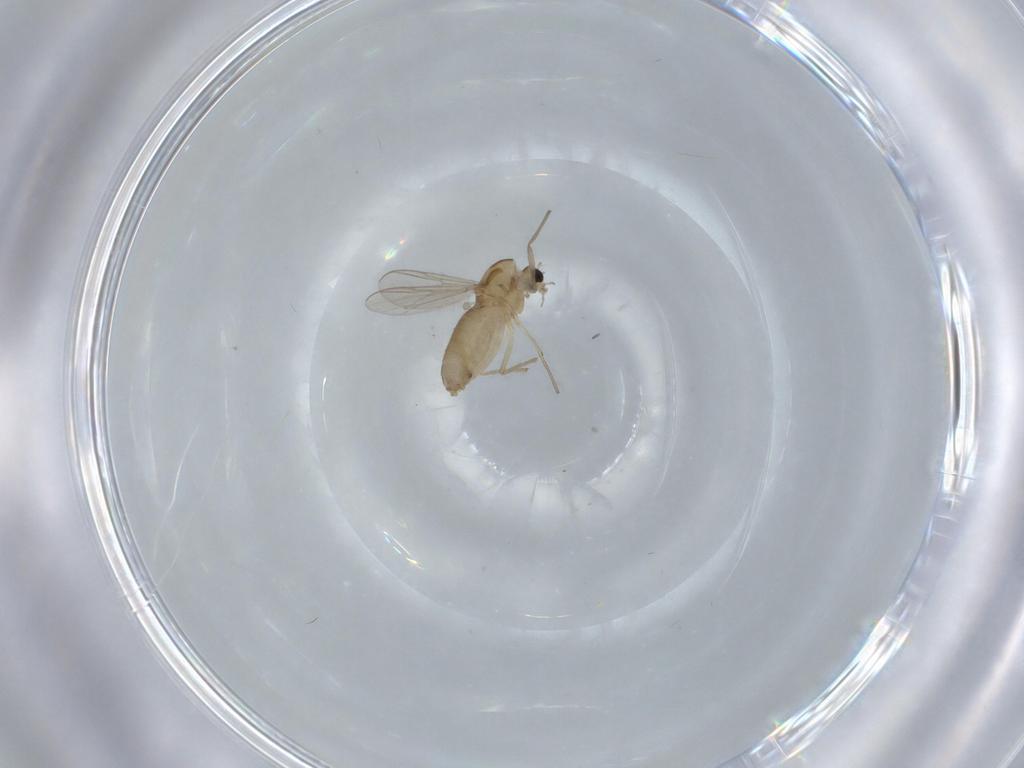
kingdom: Animalia
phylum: Arthropoda
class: Insecta
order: Diptera
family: Chironomidae
